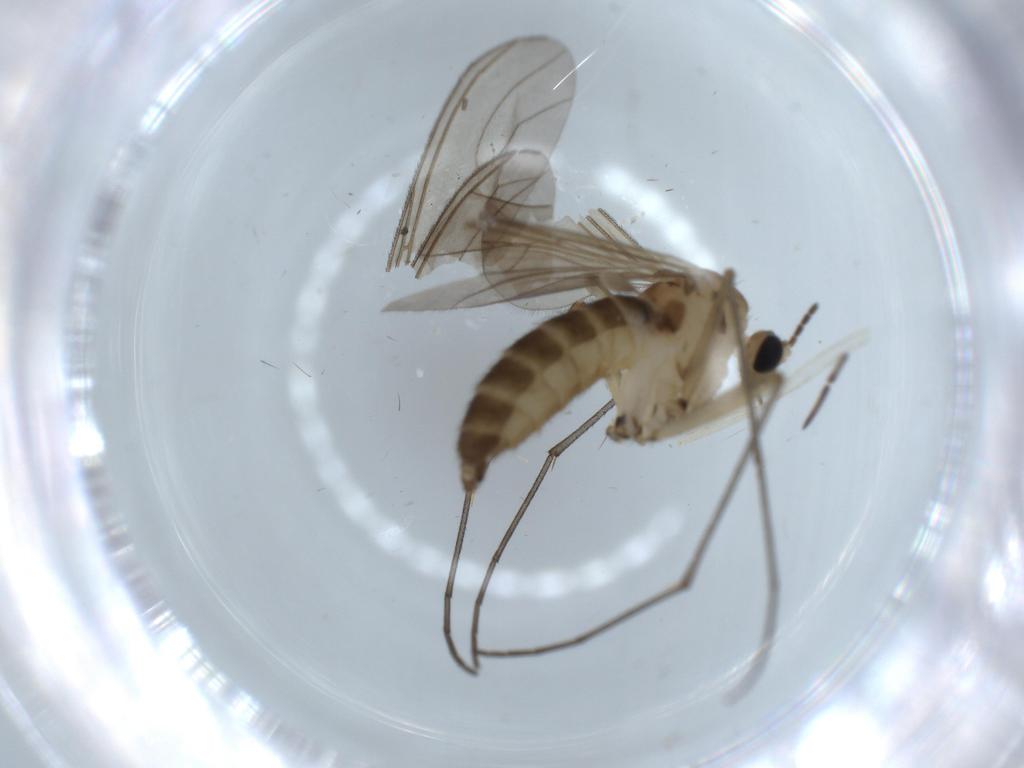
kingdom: Animalia
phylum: Arthropoda
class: Insecta
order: Diptera
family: Sciaridae
